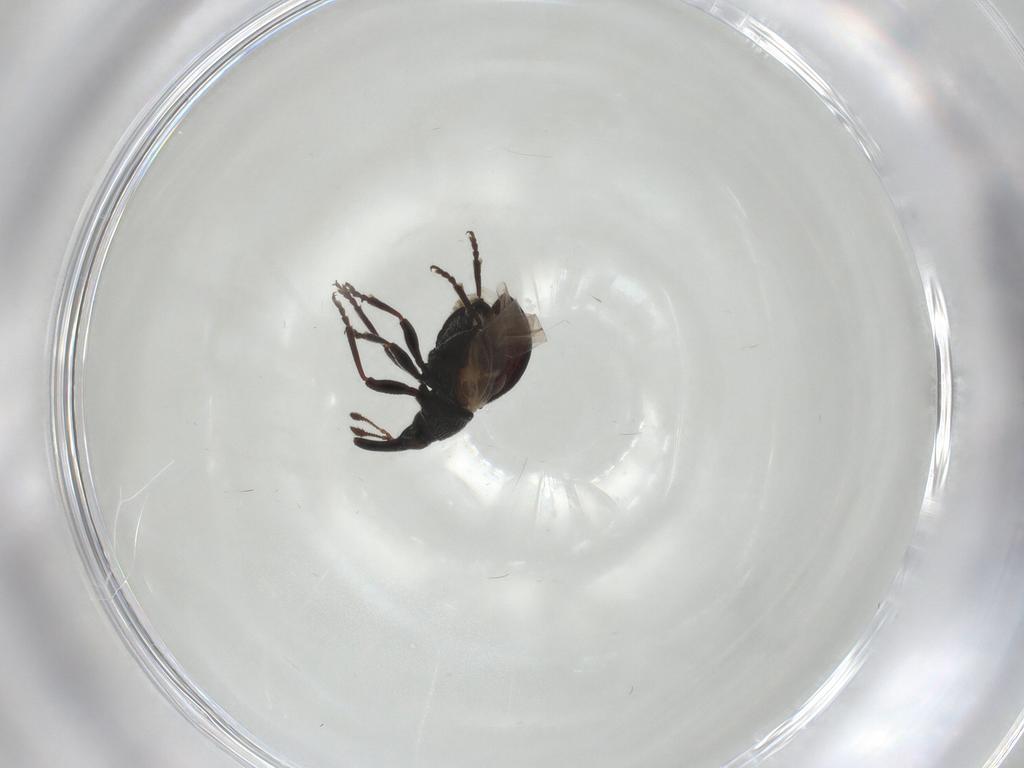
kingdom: Animalia
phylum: Arthropoda
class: Insecta
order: Coleoptera
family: Brentidae
